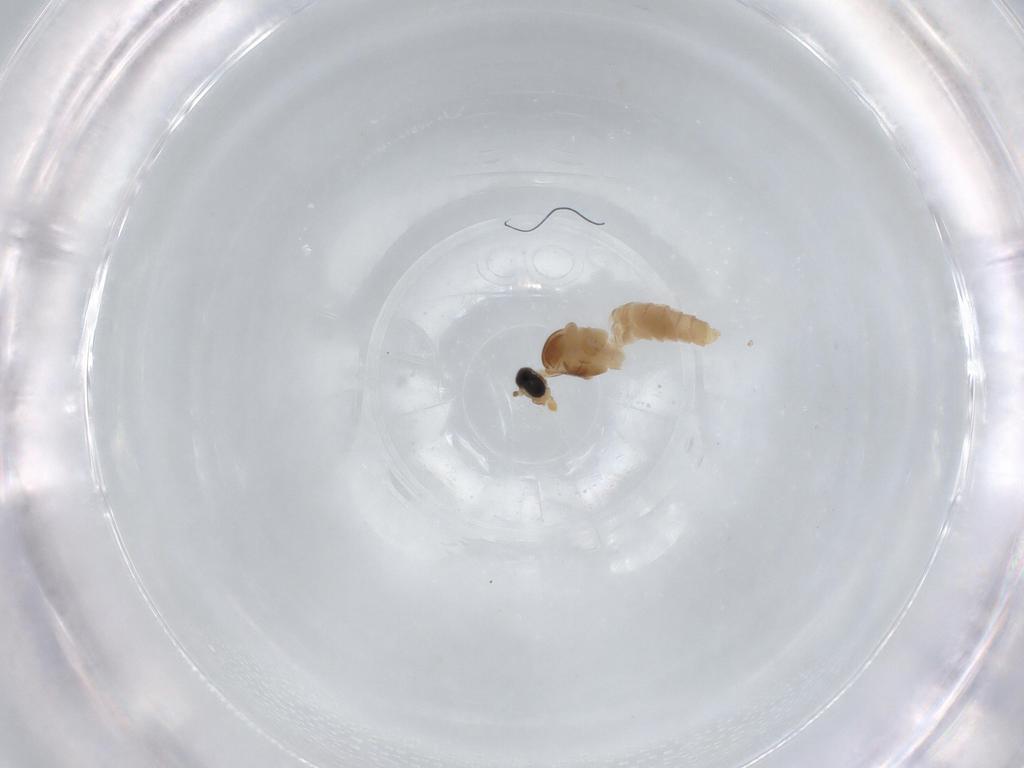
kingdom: Animalia
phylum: Arthropoda
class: Insecta
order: Diptera
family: Cecidomyiidae
